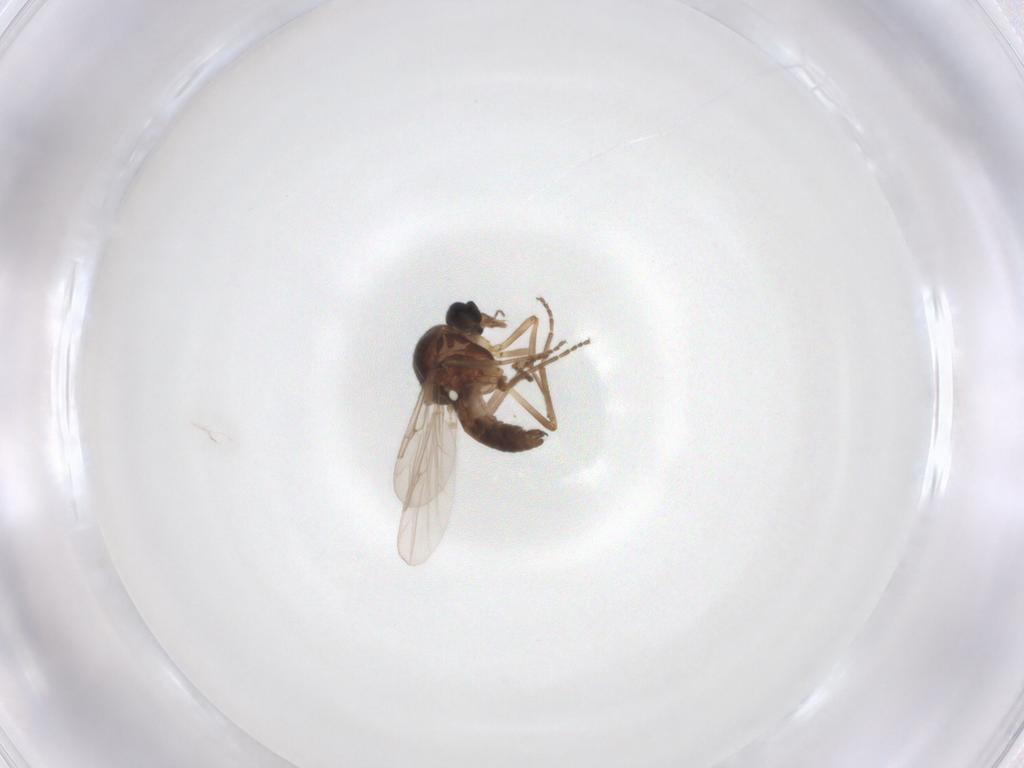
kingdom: Animalia
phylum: Arthropoda
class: Insecta
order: Diptera
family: Ceratopogonidae
